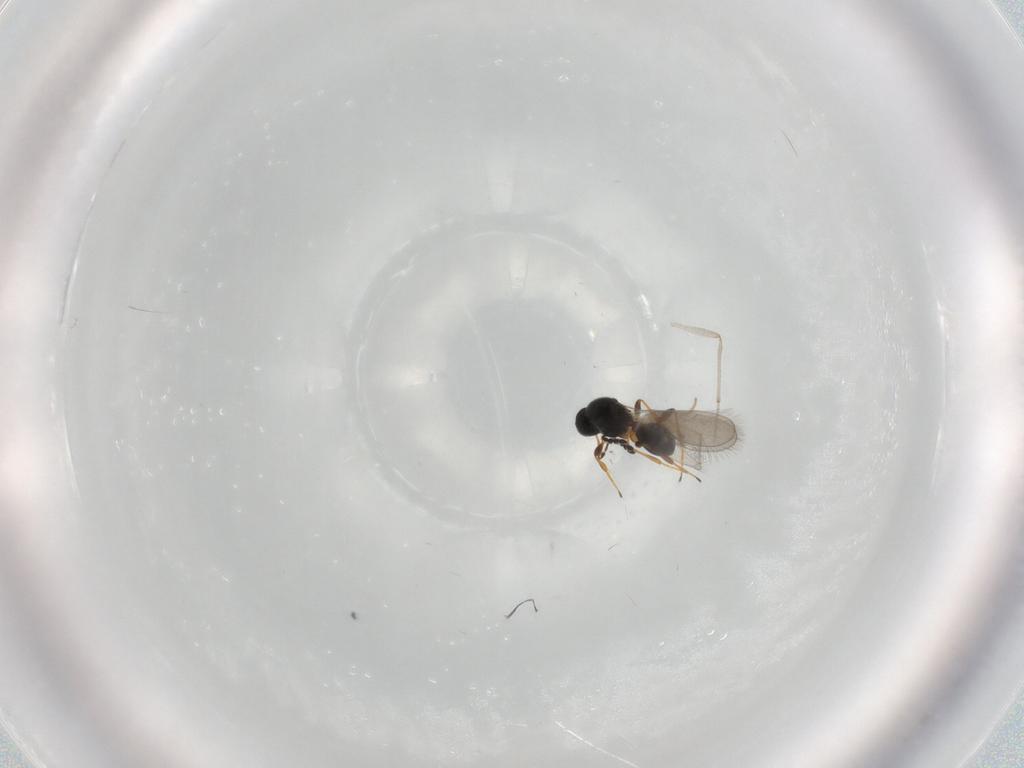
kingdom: Animalia
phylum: Arthropoda
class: Insecta
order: Hymenoptera
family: Platygastridae
